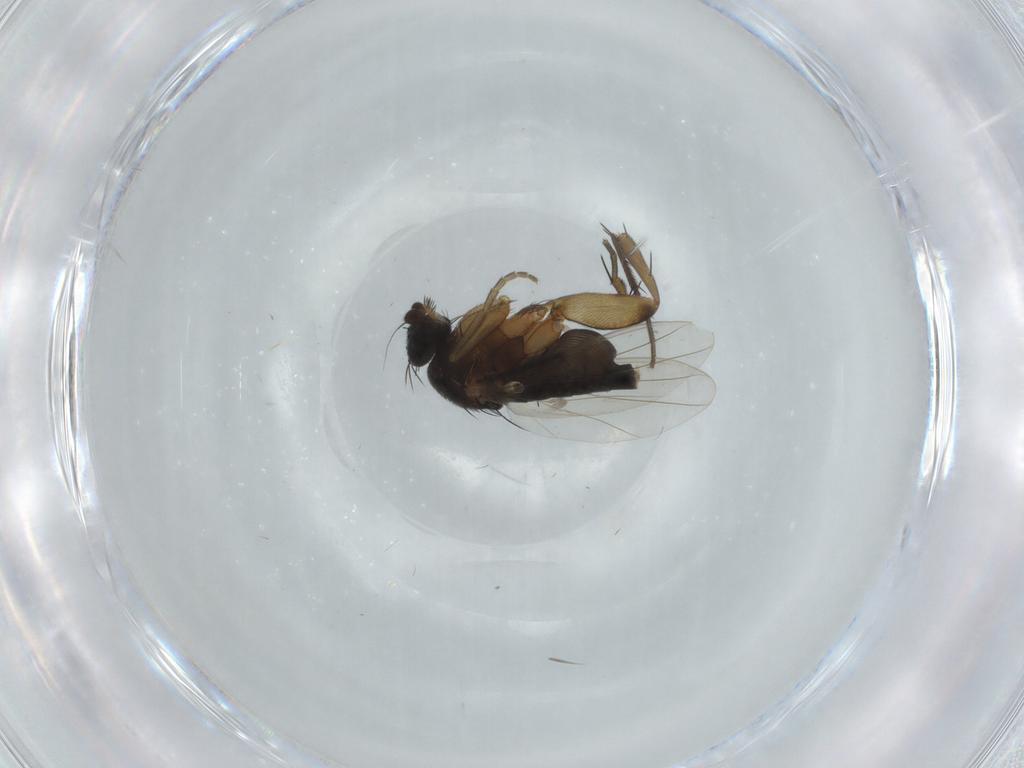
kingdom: Animalia
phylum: Arthropoda
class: Insecta
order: Diptera
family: Phoridae
